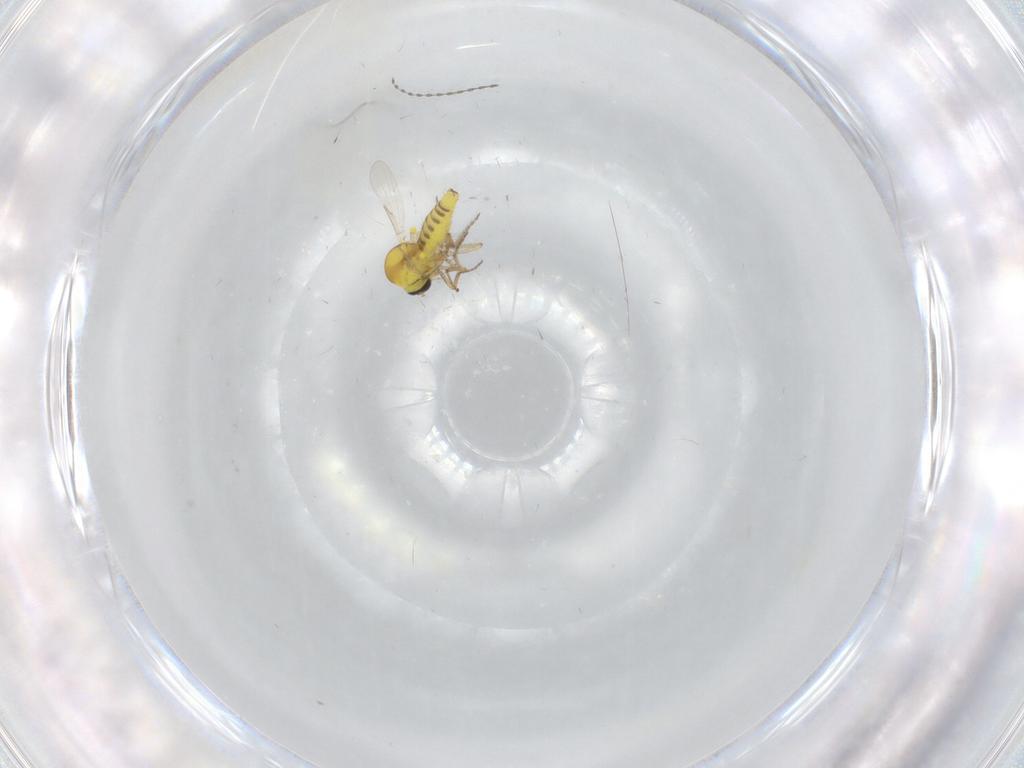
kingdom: Animalia
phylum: Arthropoda
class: Insecta
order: Diptera
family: Ceratopogonidae
